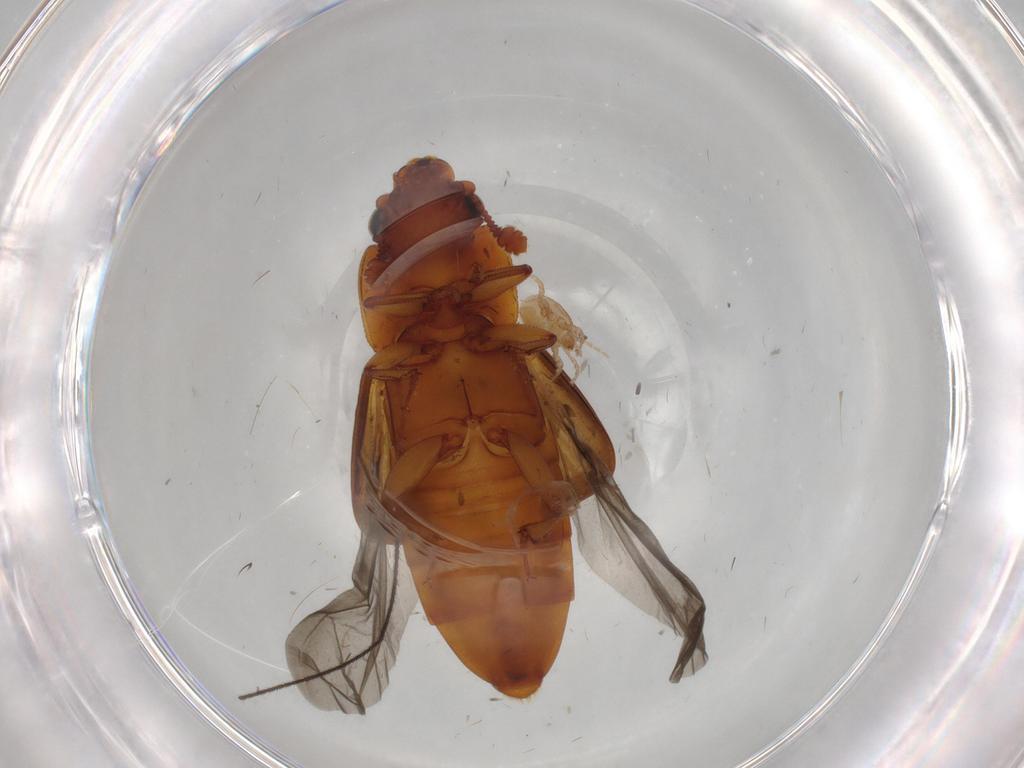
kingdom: Animalia
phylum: Arthropoda
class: Insecta
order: Coleoptera
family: Nitidulidae
